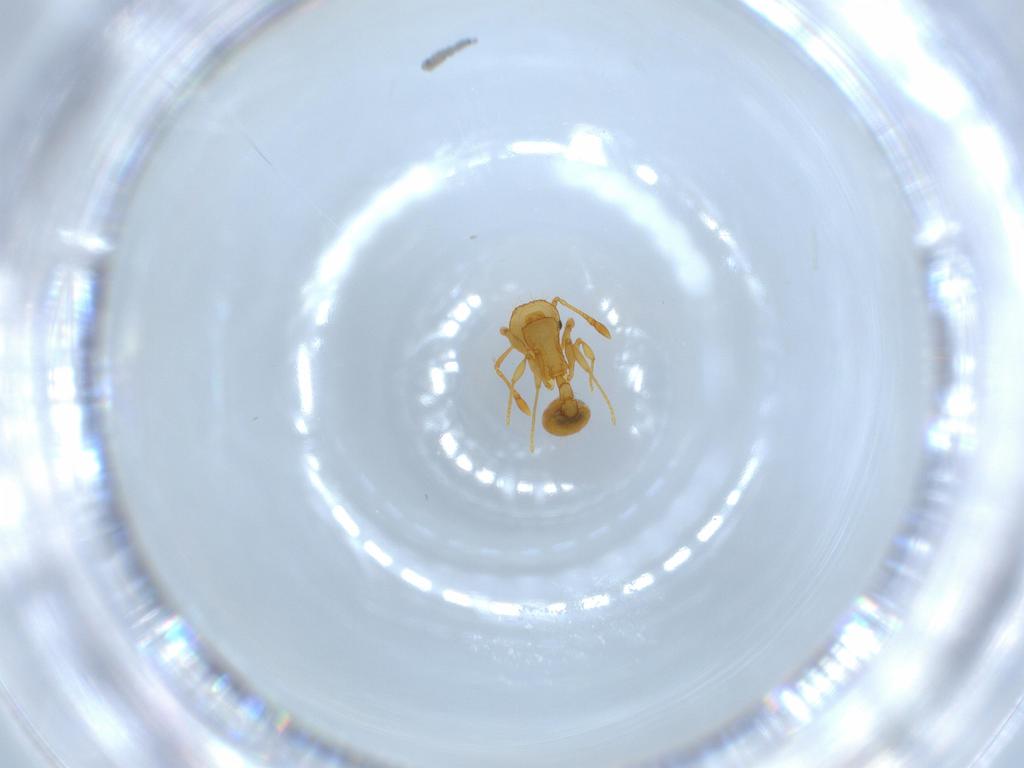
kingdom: Animalia
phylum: Arthropoda
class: Insecta
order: Hymenoptera
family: Formicidae
